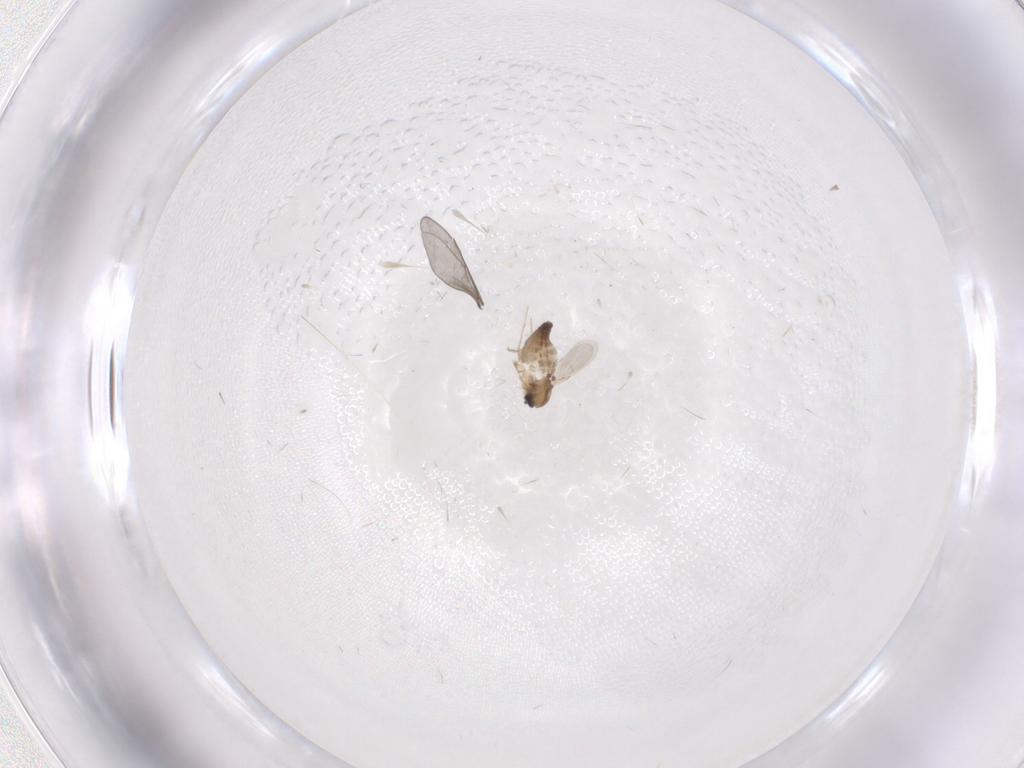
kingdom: Animalia
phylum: Arthropoda
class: Insecta
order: Diptera
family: Ceratopogonidae
